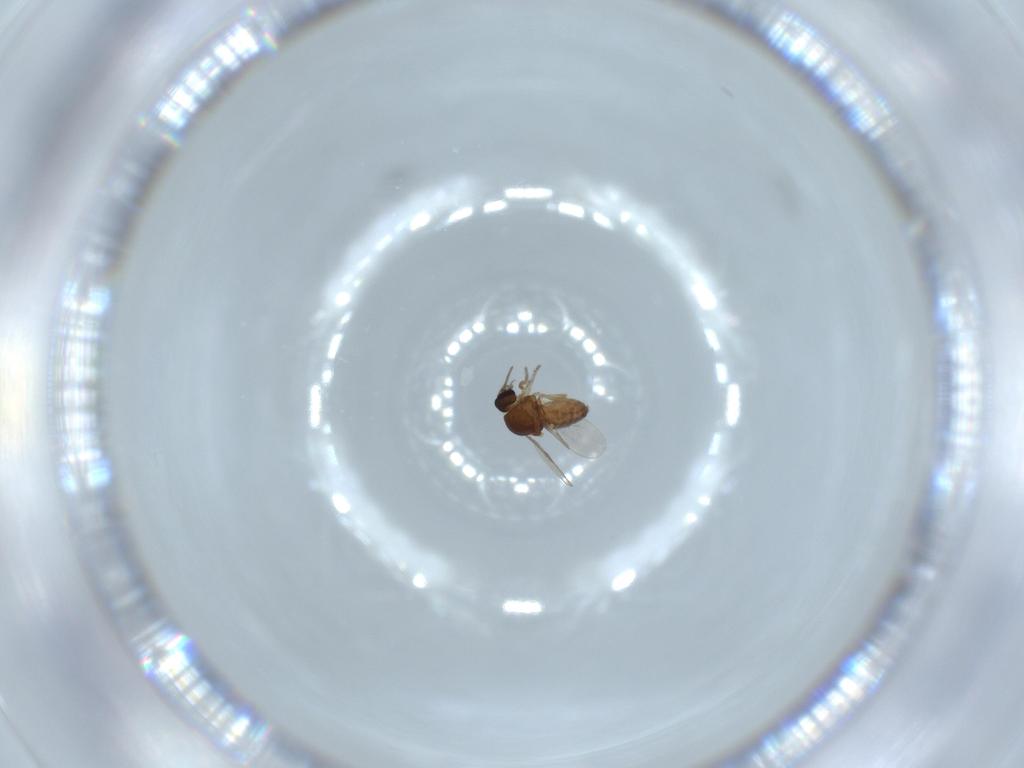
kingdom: Animalia
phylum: Arthropoda
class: Insecta
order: Diptera
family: Ceratopogonidae
